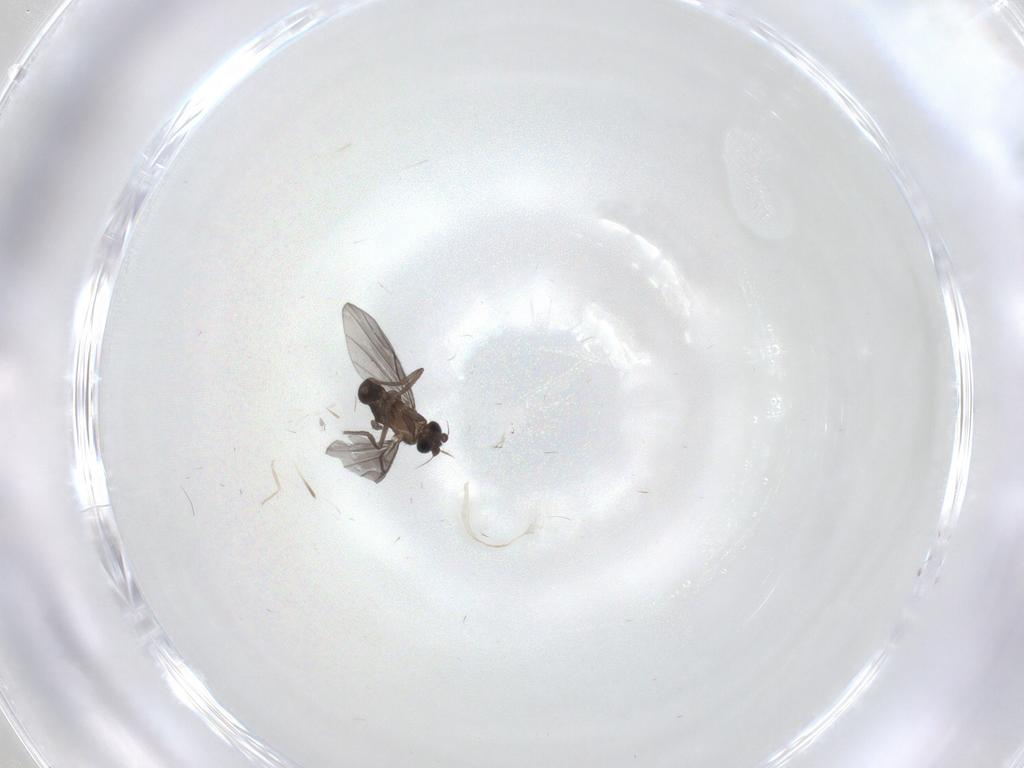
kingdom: Animalia
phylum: Arthropoda
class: Insecta
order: Diptera
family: Phoridae
